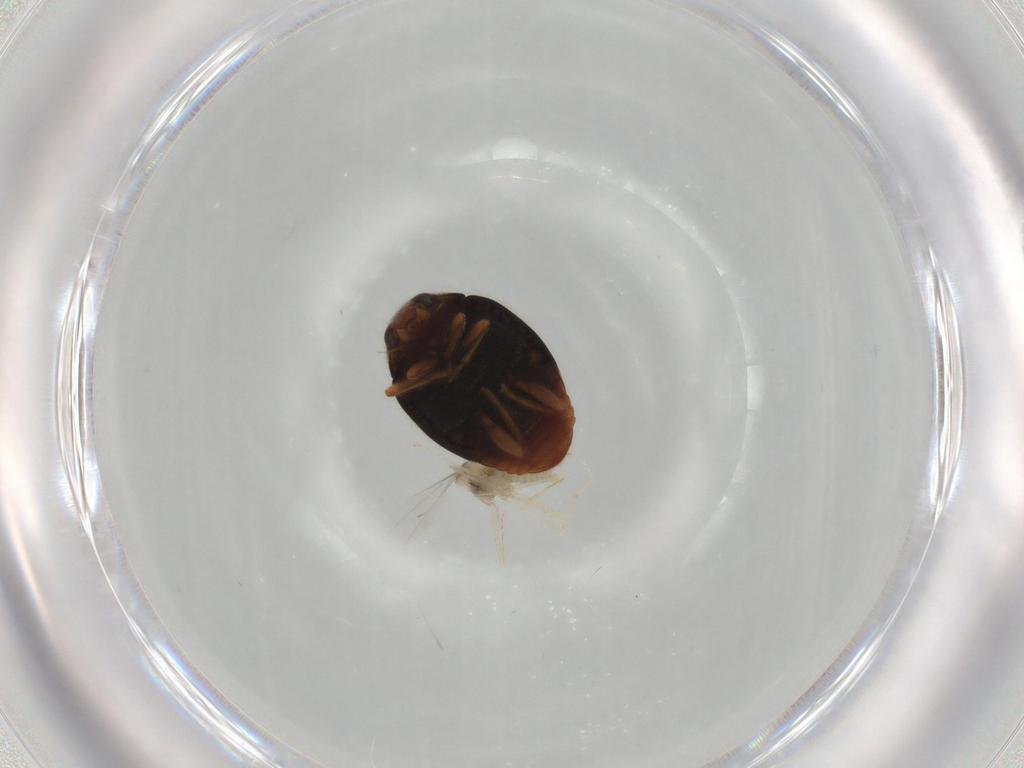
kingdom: Animalia
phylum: Arthropoda
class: Insecta
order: Coleoptera
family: Coccinellidae
